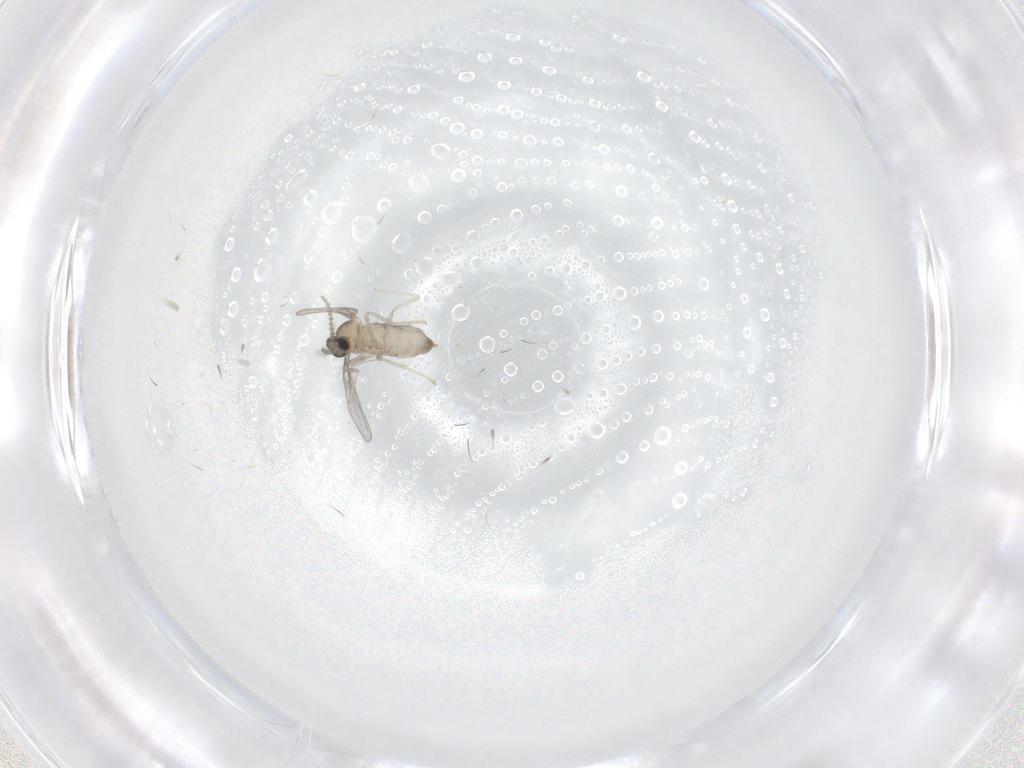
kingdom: Animalia
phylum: Arthropoda
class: Insecta
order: Diptera
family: Cecidomyiidae
